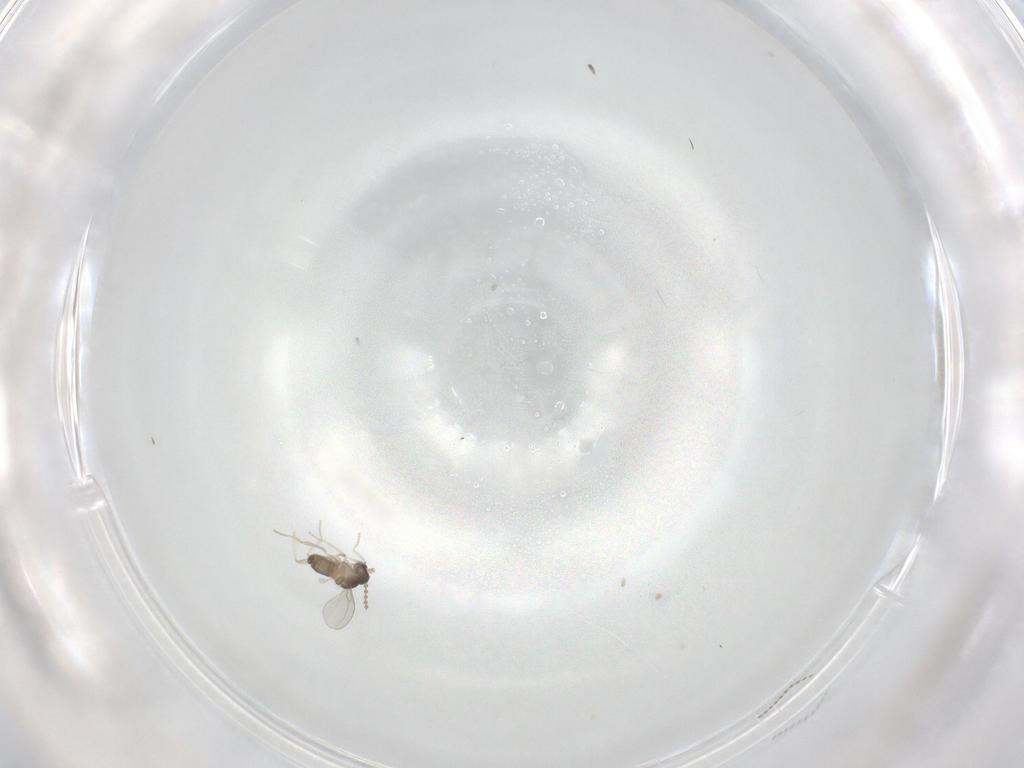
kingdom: Animalia
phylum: Arthropoda
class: Insecta
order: Diptera
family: Cecidomyiidae
